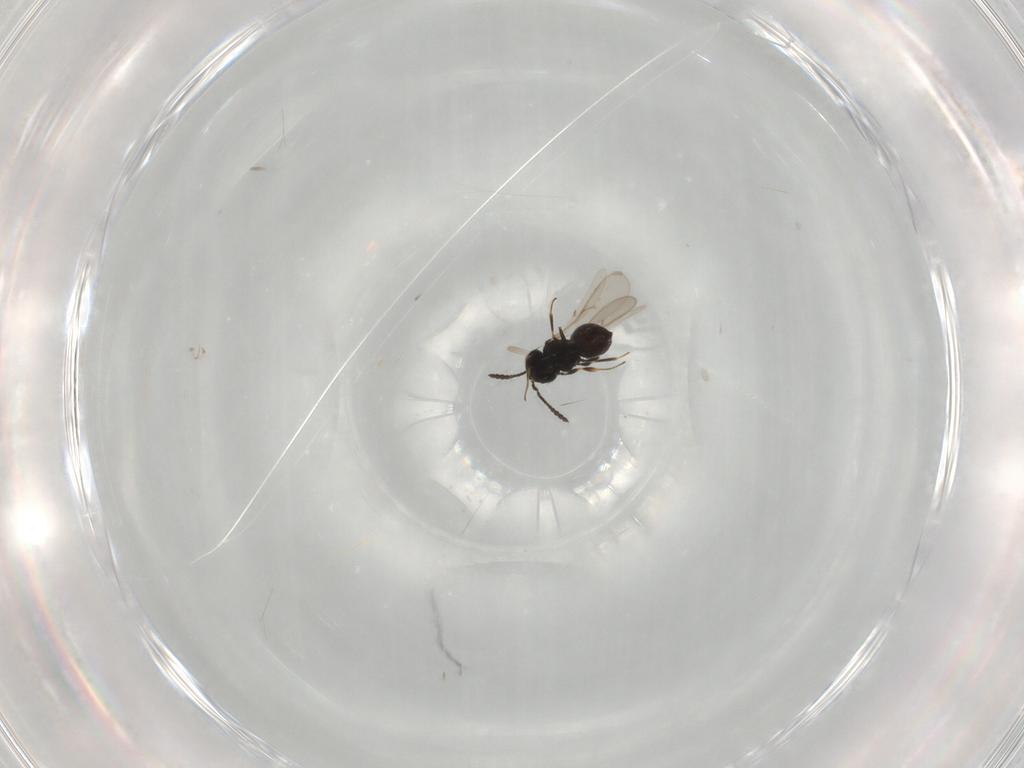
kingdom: Animalia
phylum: Arthropoda
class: Insecta
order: Hymenoptera
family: Scelionidae
